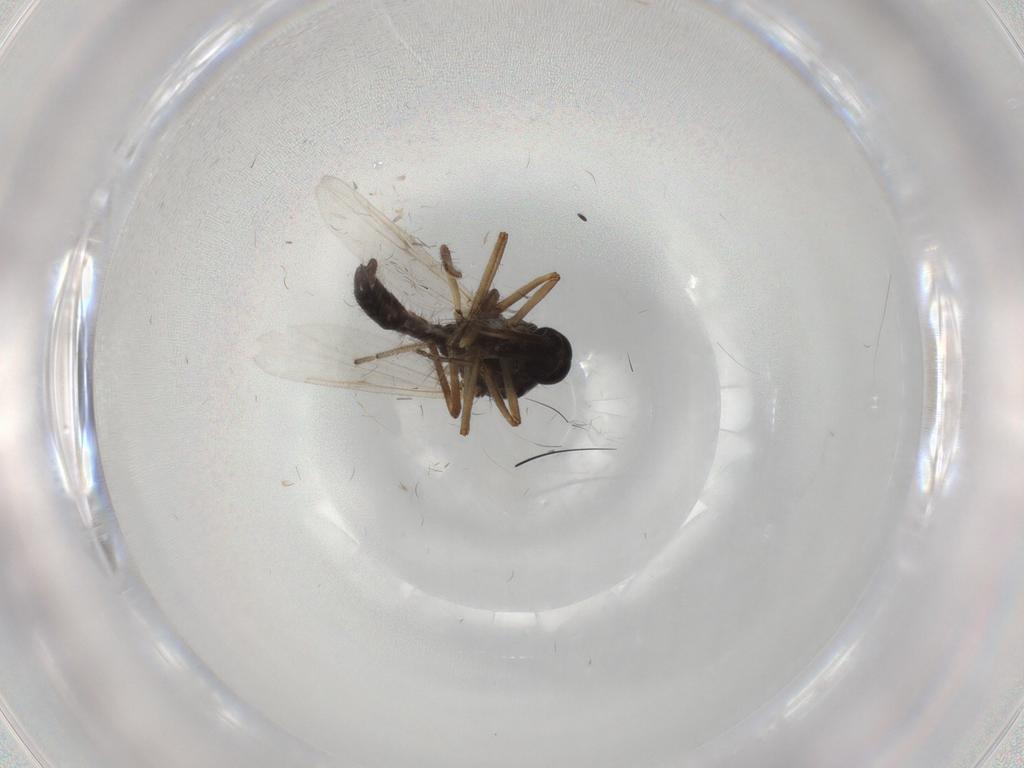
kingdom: Animalia
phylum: Arthropoda
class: Insecta
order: Diptera
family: Ceratopogonidae
